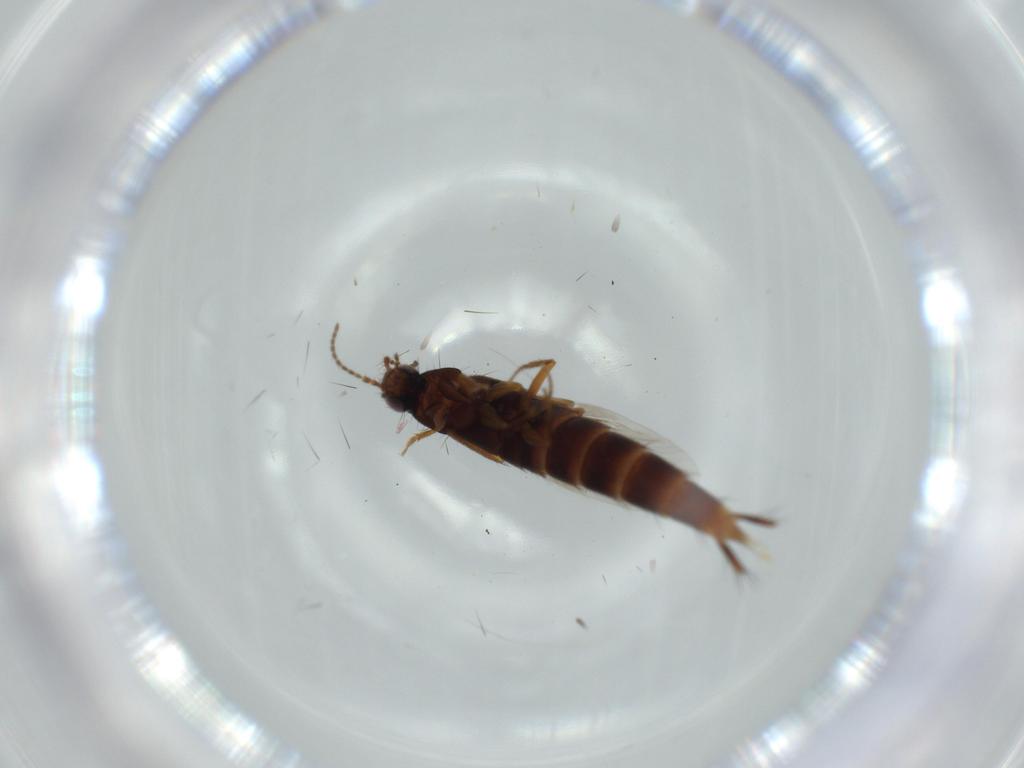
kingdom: Animalia
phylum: Arthropoda
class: Insecta
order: Coleoptera
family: Staphylinidae
